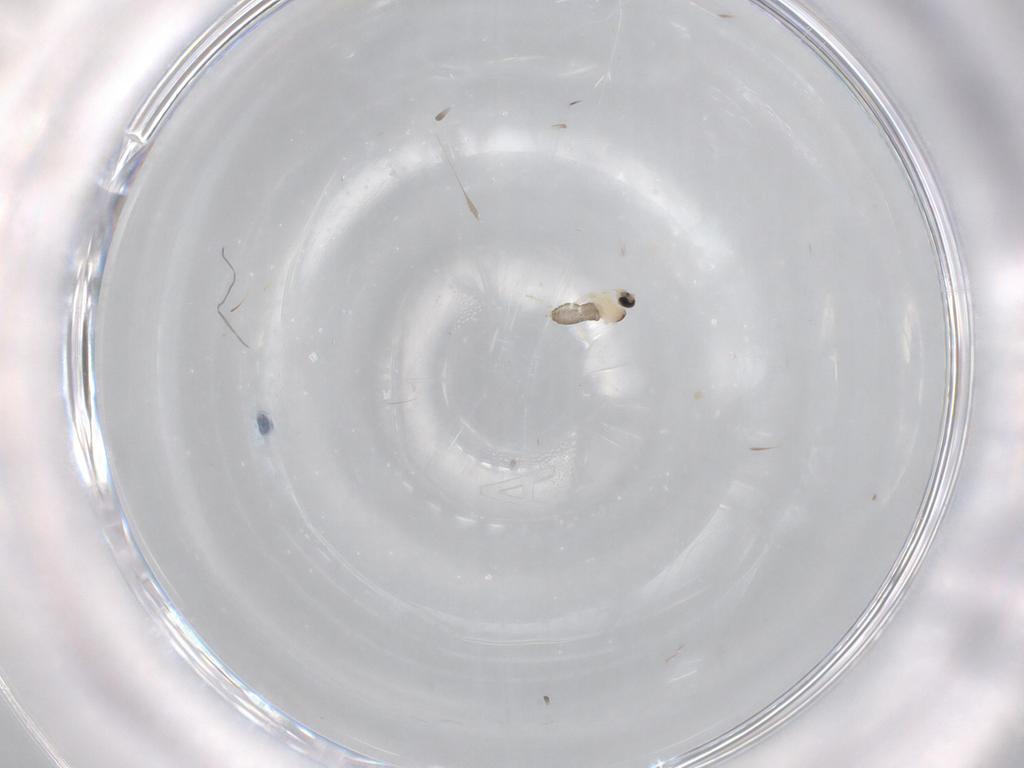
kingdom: Animalia
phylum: Arthropoda
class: Insecta
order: Diptera
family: Cecidomyiidae
